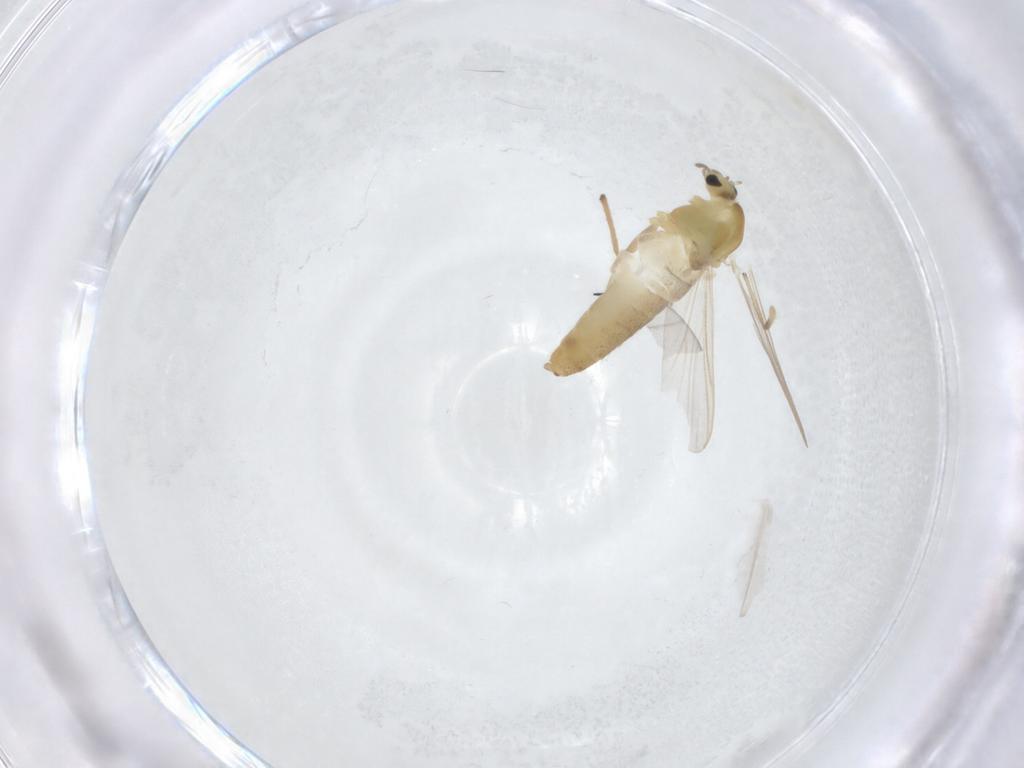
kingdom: Animalia
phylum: Arthropoda
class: Insecta
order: Diptera
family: Chironomidae
